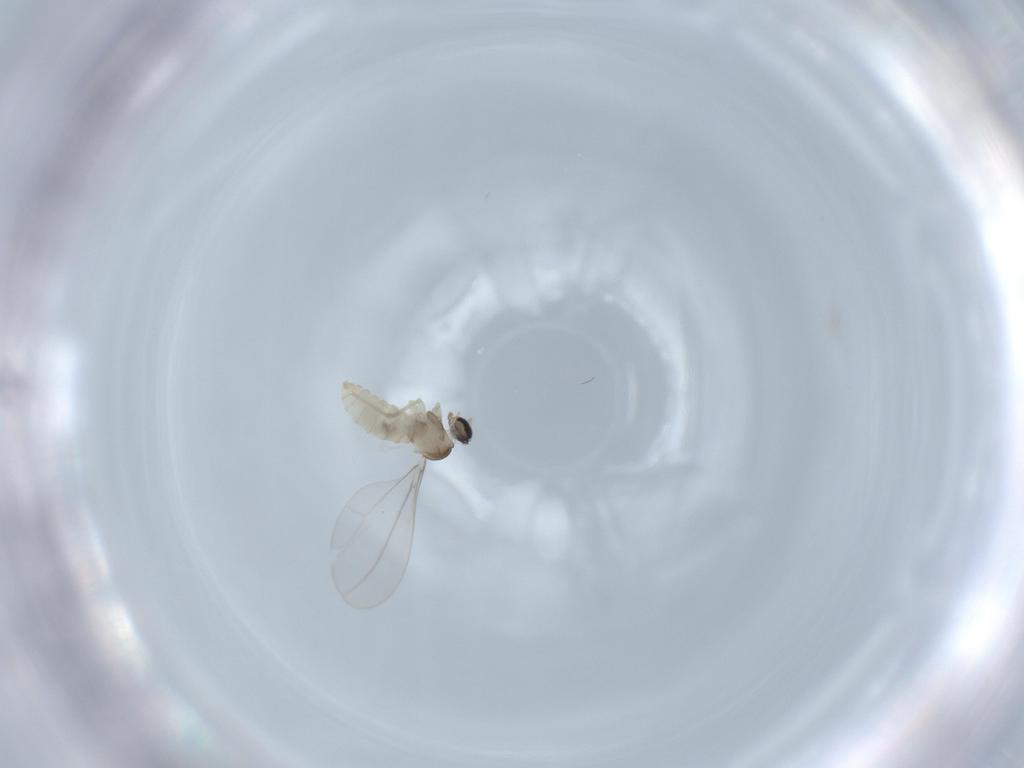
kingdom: Animalia
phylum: Arthropoda
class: Insecta
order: Diptera
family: Cecidomyiidae
